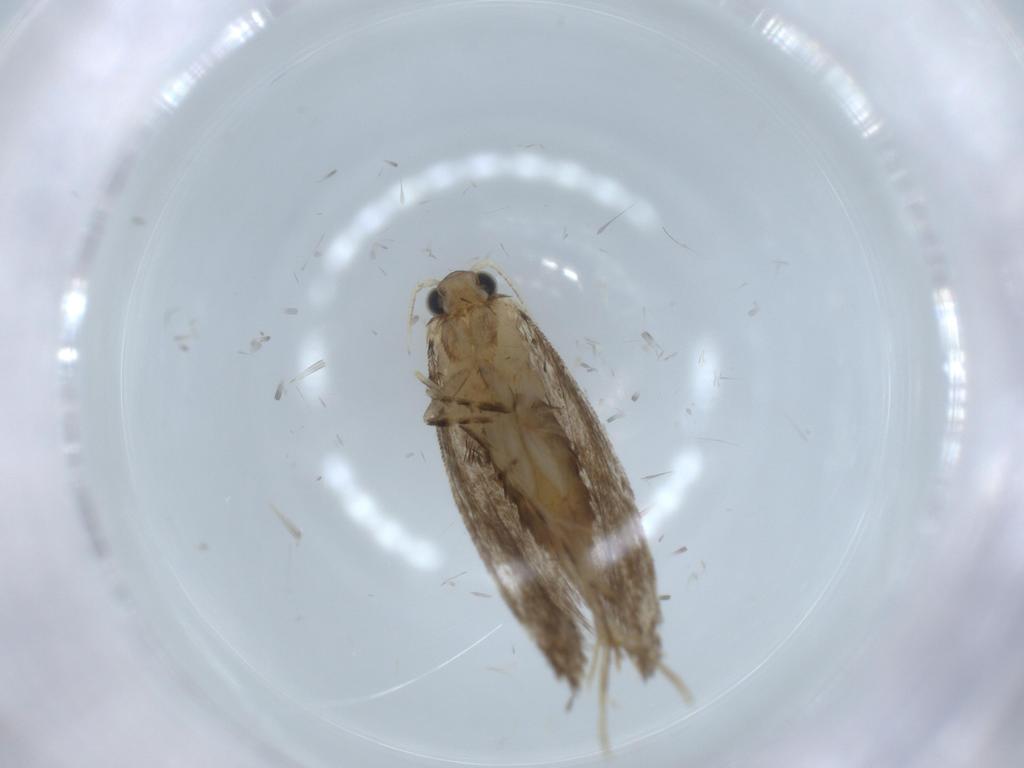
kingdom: Animalia
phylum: Arthropoda
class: Insecta
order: Lepidoptera
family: Tineidae
